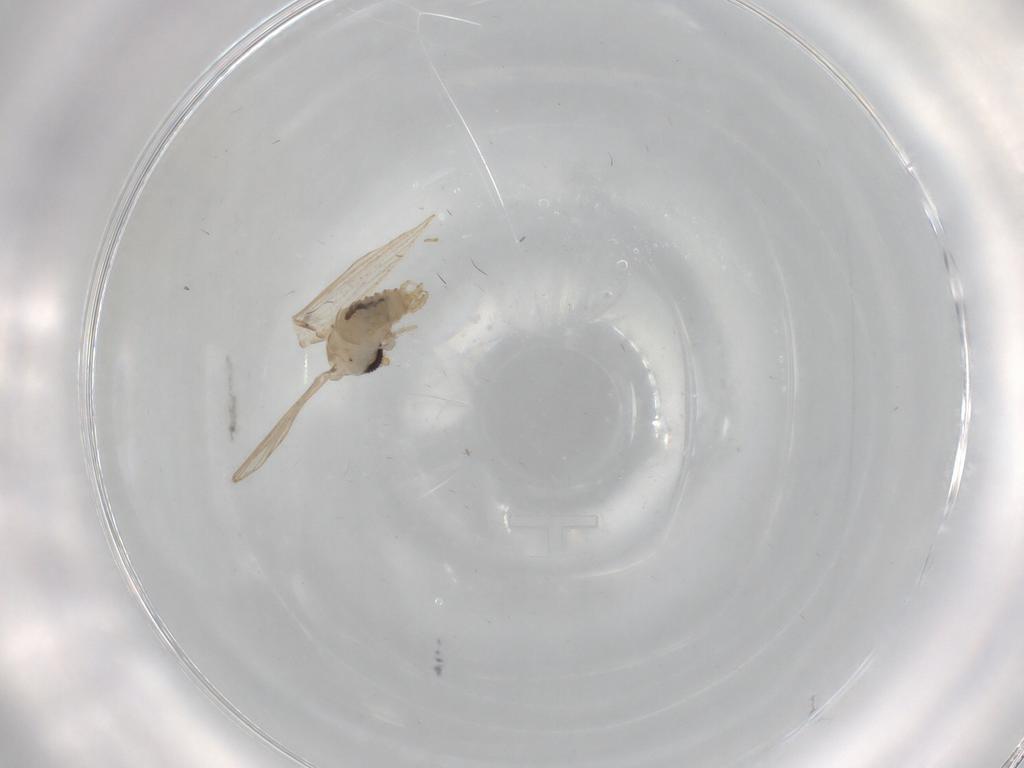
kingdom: Animalia
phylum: Arthropoda
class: Insecta
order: Diptera
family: Psychodidae
